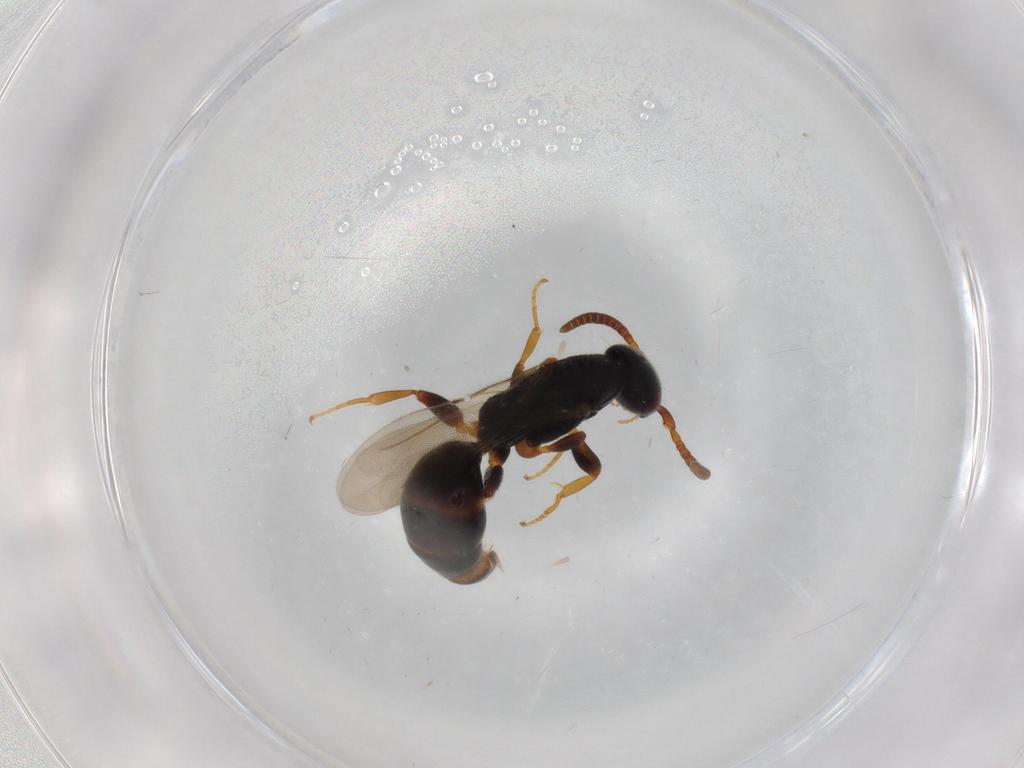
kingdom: Animalia
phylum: Arthropoda
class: Insecta
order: Hymenoptera
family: Bethylidae
